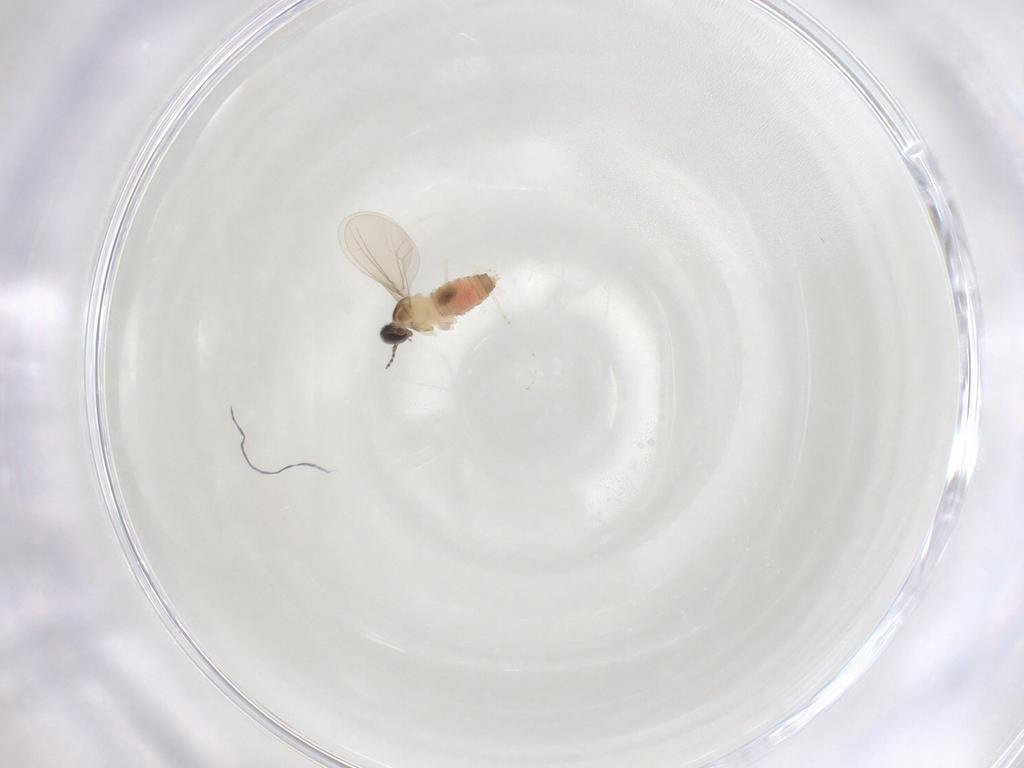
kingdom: Animalia
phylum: Arthropoda
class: Insecta
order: Diptera
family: Cecidomyiidae
